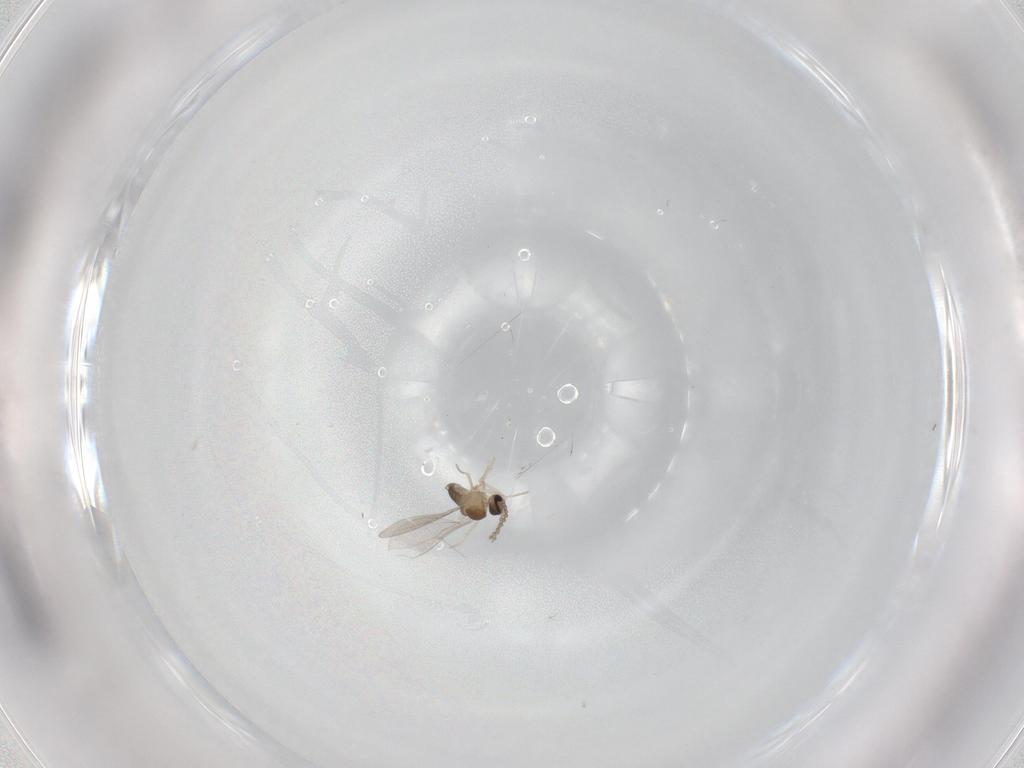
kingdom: Animalia
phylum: Arthropoda
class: Insecta
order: Diptera
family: Cecidomyiidae
